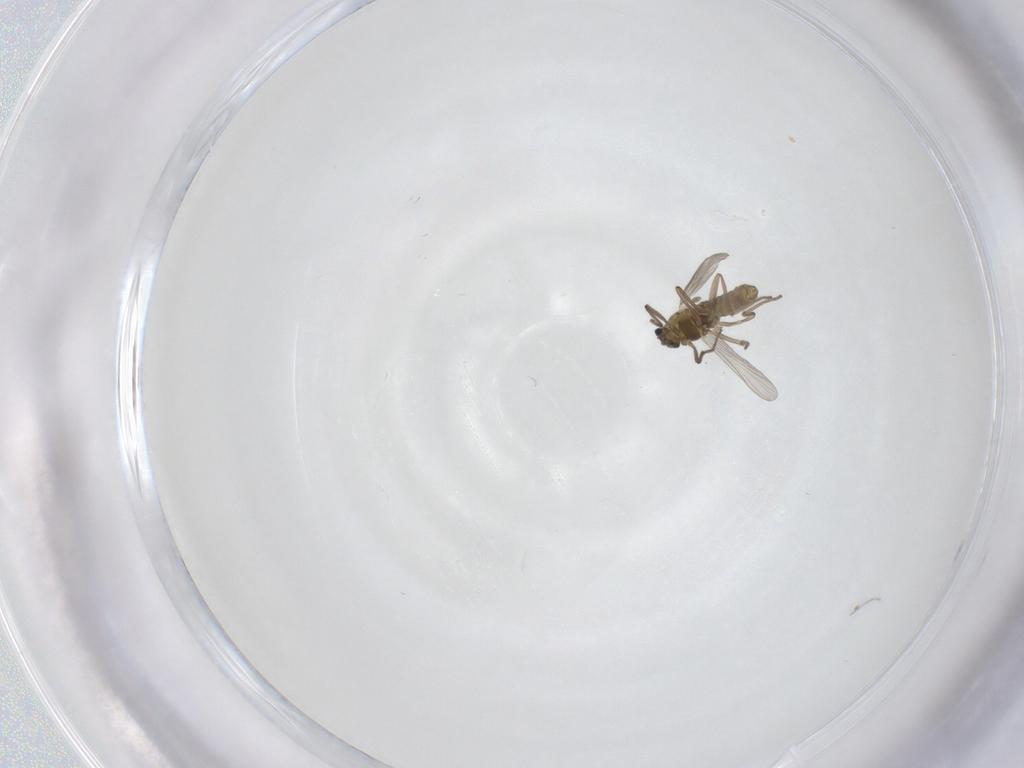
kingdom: Animalia
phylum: Arthropoda
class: Insecta
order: Diptera
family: Chironomidae
